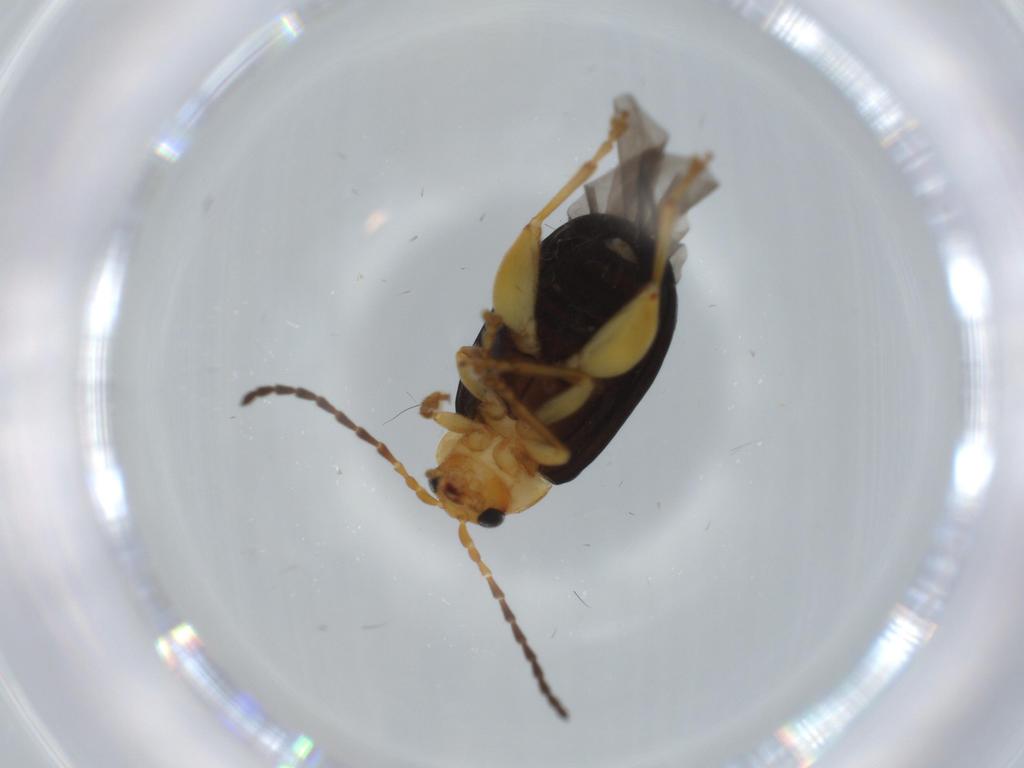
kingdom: Animalia
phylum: Arthropoda
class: Insecta
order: Coleoptera
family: Chrysomelidae
